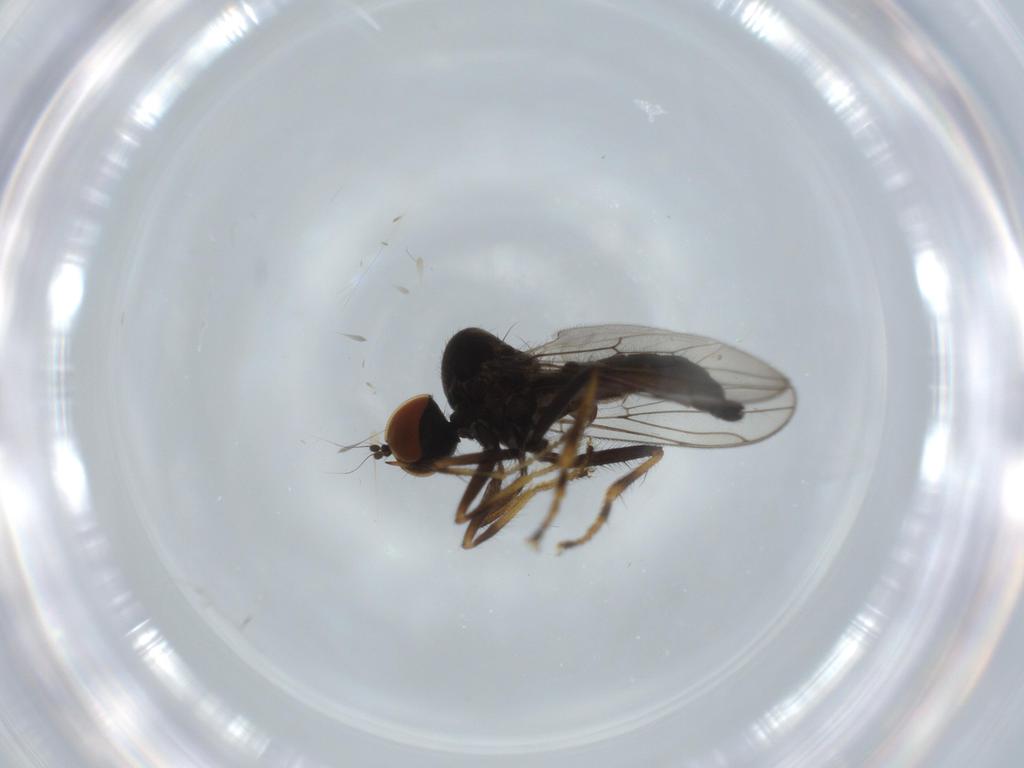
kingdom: Animalia
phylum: Arthropoda
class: Insecta
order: Diptera
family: Hybotidae
